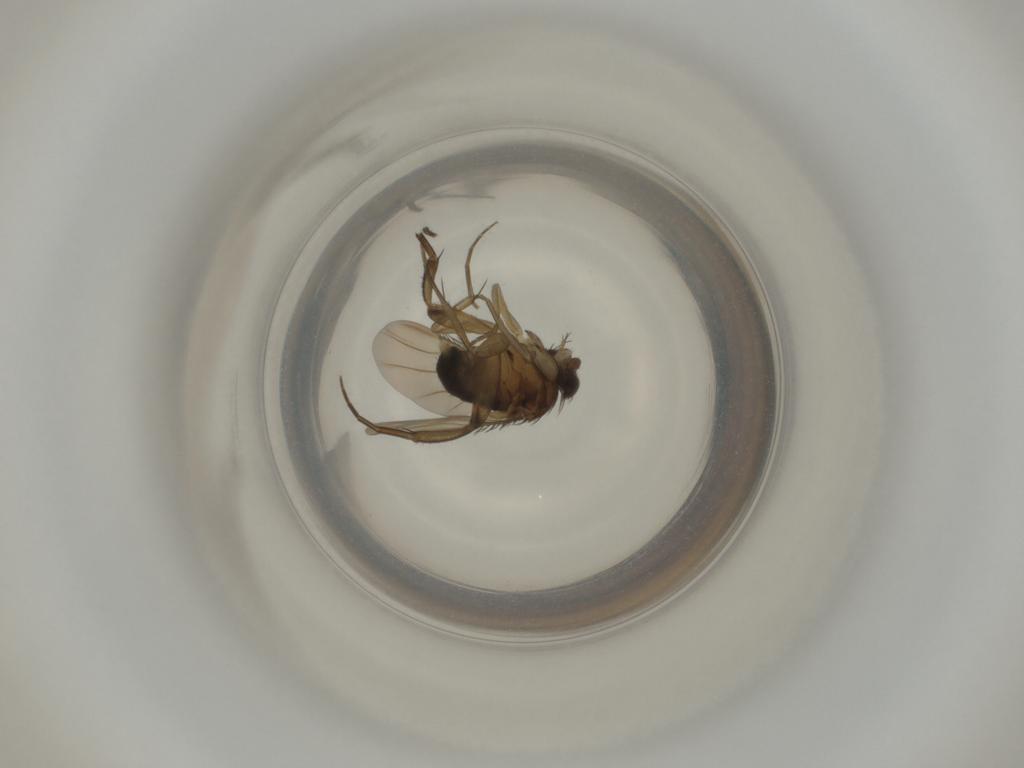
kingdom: Animalia
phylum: Arthropoda
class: Insecta
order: Diptera
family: Phoridae
